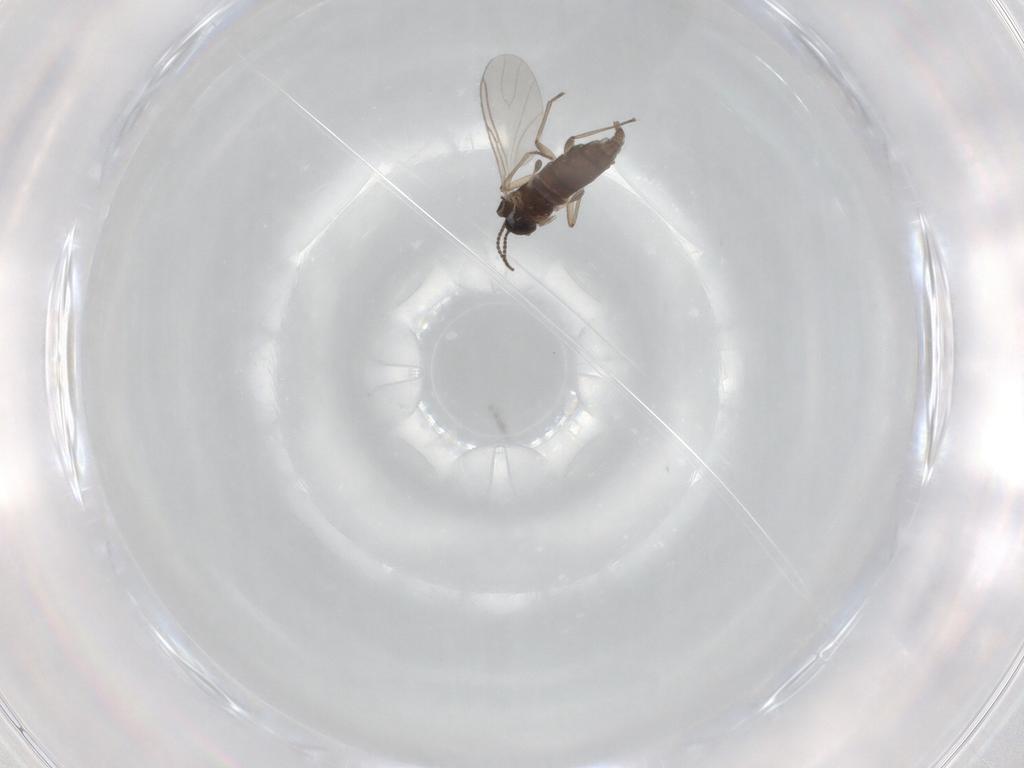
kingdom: Animalia
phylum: Arthropoda
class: Insecta
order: Diptera
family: Sciaridae
